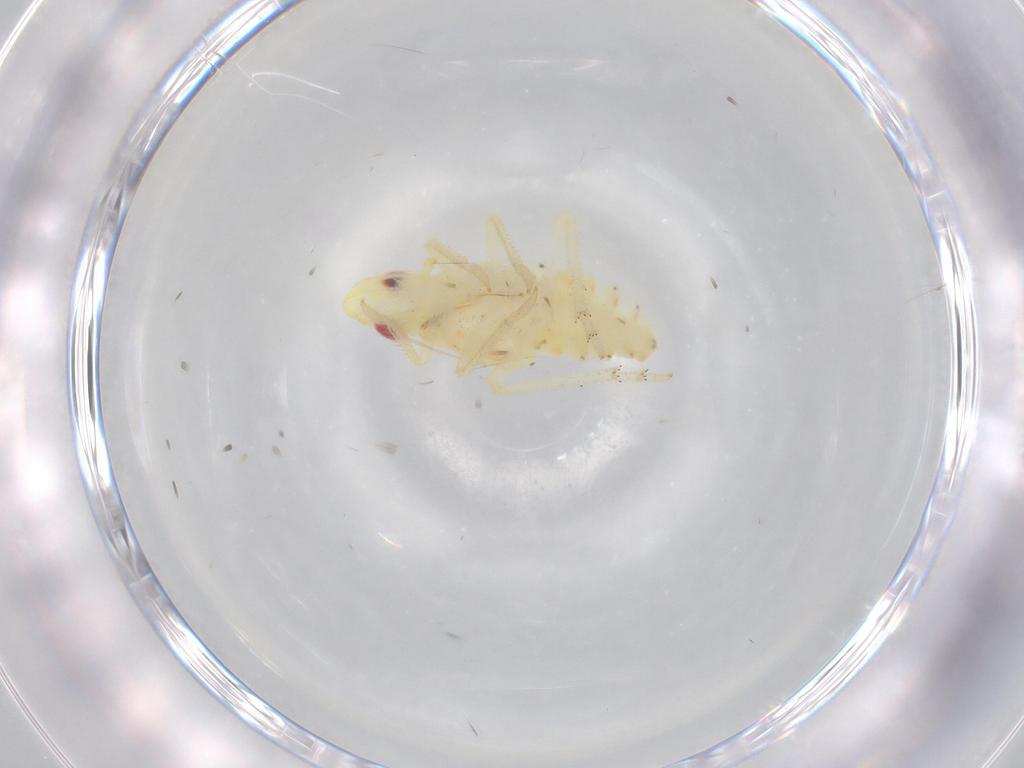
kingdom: Animalia
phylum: Arthropoda
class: Insecta
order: Hemiptera
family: Tropiduchidae
